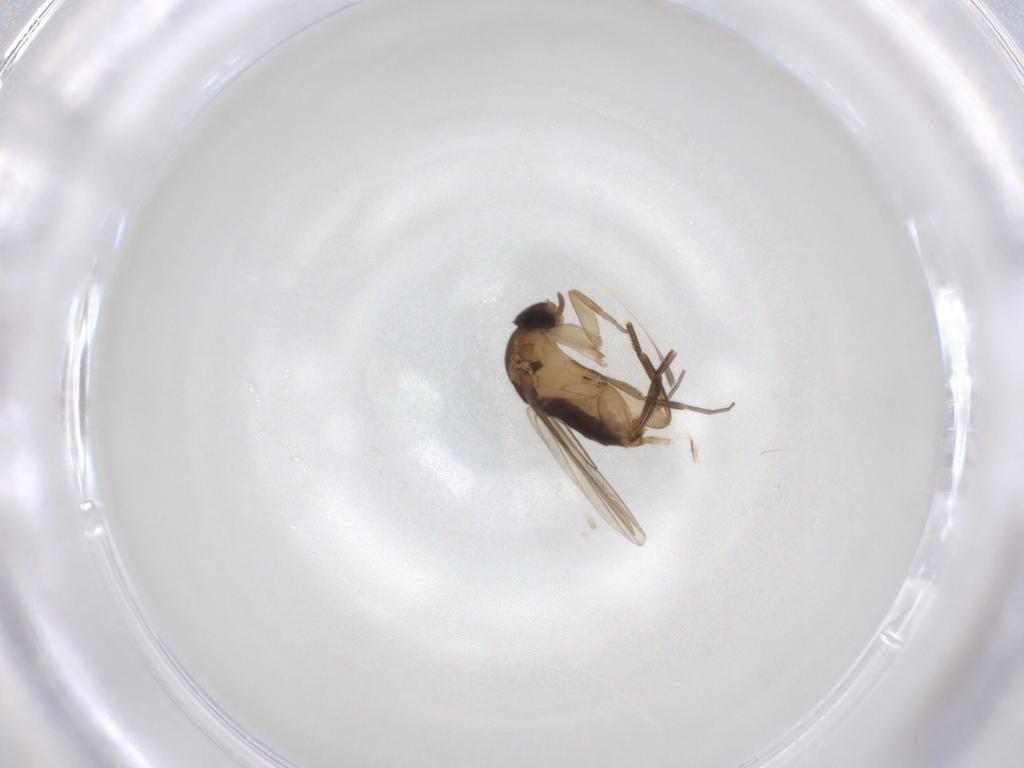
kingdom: Animalia
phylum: Arthropoda
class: Insecta
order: Diptera
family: Phoridae
